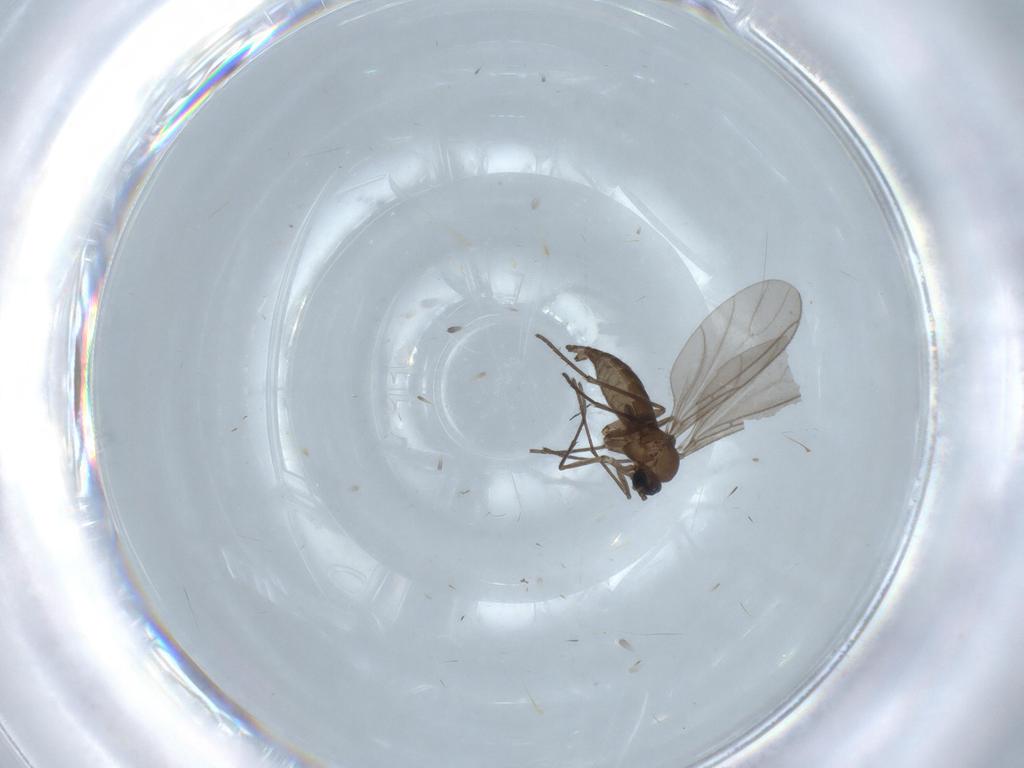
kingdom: Animalia
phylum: Arthropoda
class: Insecta
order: Diptera
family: Sciaridae
